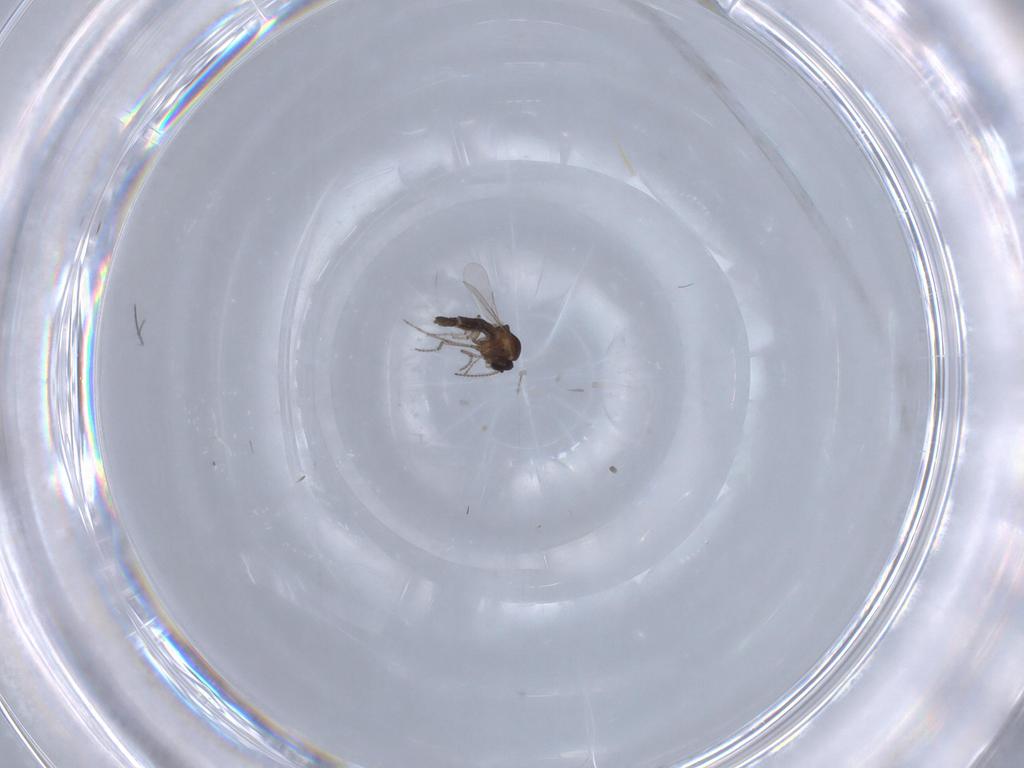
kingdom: Animalia
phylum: Arthropoda
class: Insecta
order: Diptera
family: Ceratopogonidae
